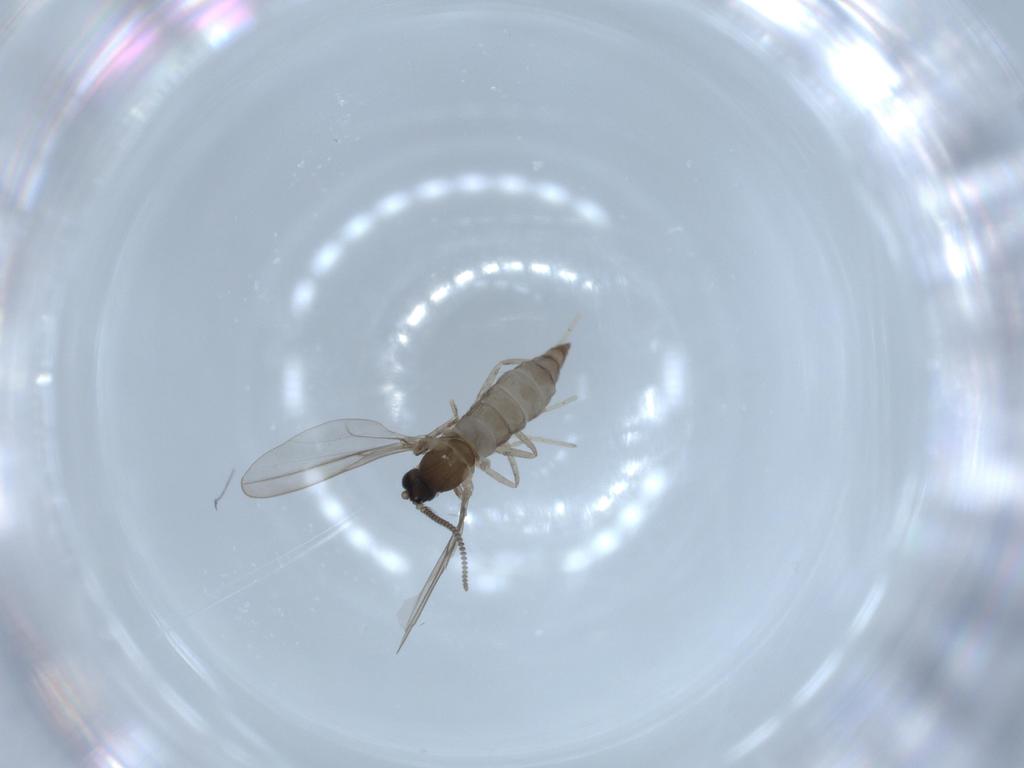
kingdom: Animalia
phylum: Arthropoda
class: Insecta
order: Diptera
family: Cecidomyiidae
